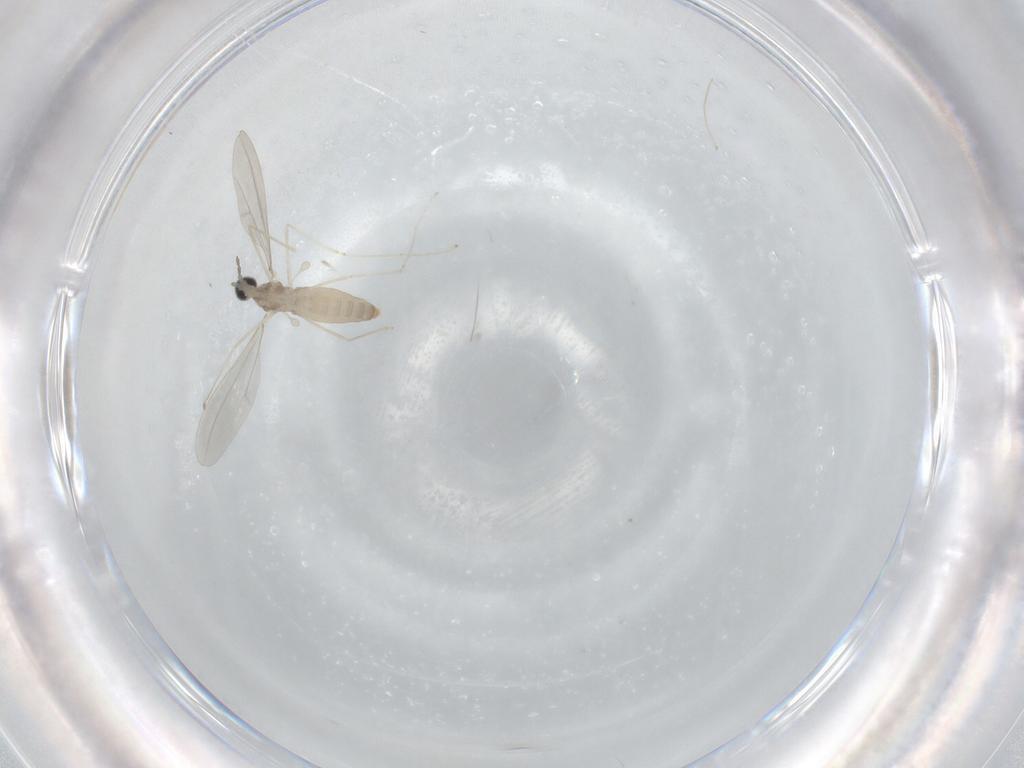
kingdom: Animalia
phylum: Arthropoda
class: Insecta
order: Diptera
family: Cecidomyiidae
